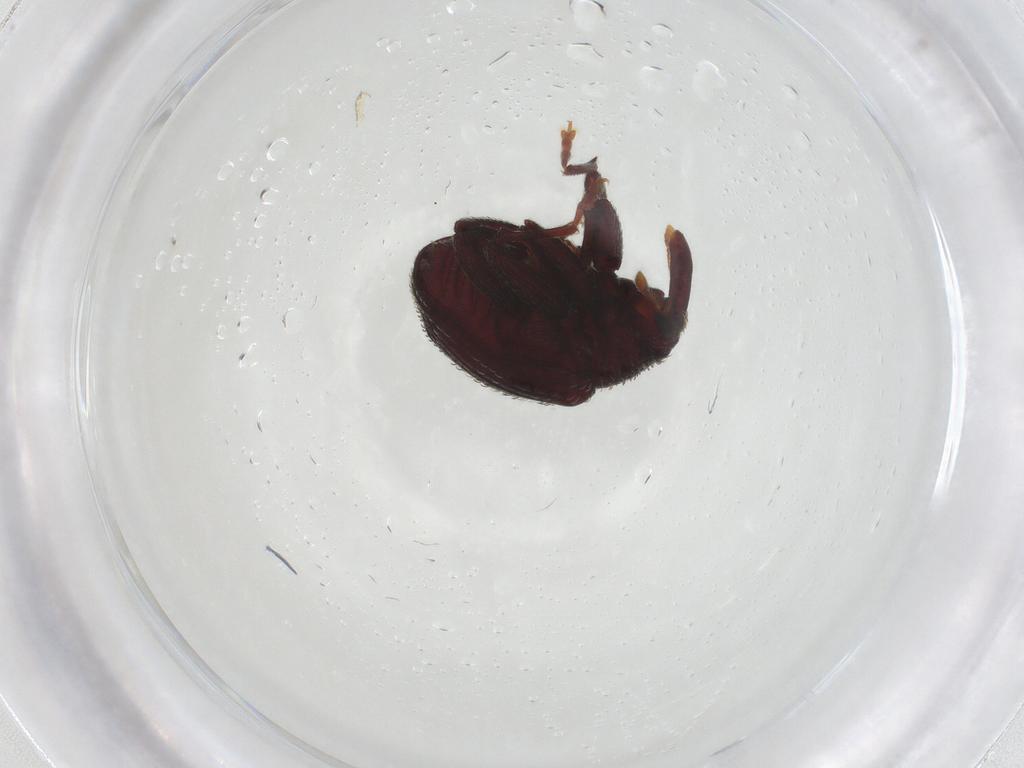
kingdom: Animalia
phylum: Arthropoda
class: Insecta
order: Coleoptera
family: Curculionidae
